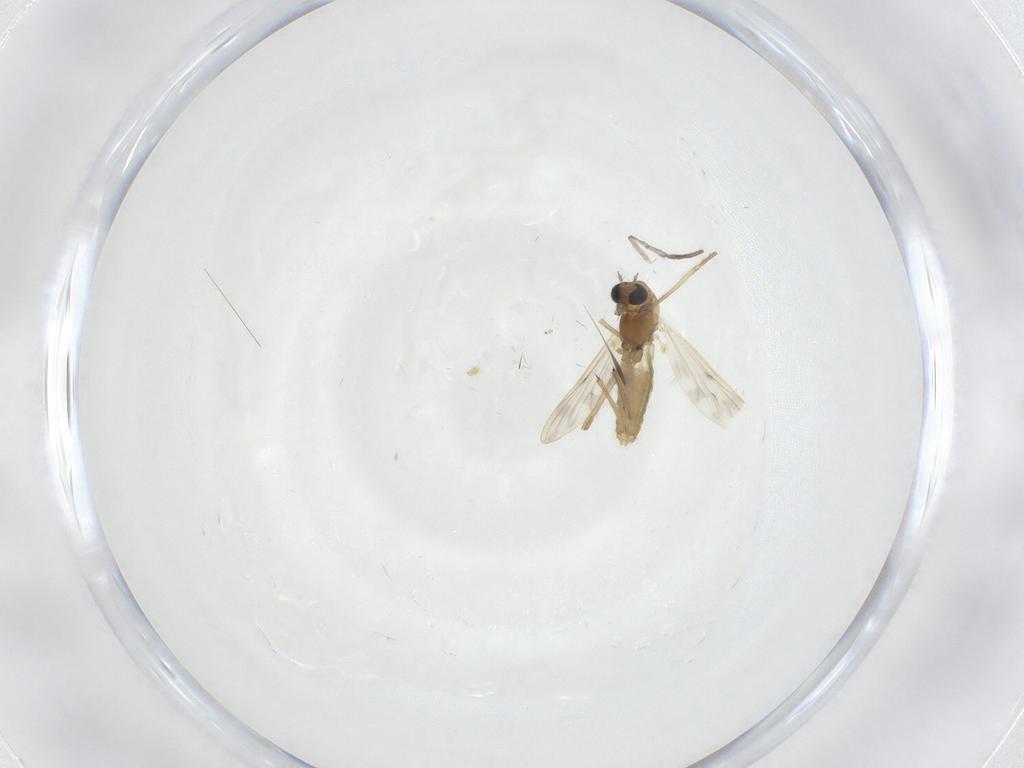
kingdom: Animalia
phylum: Arthropoda
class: Insecta
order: Diptera
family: Chironomidae
